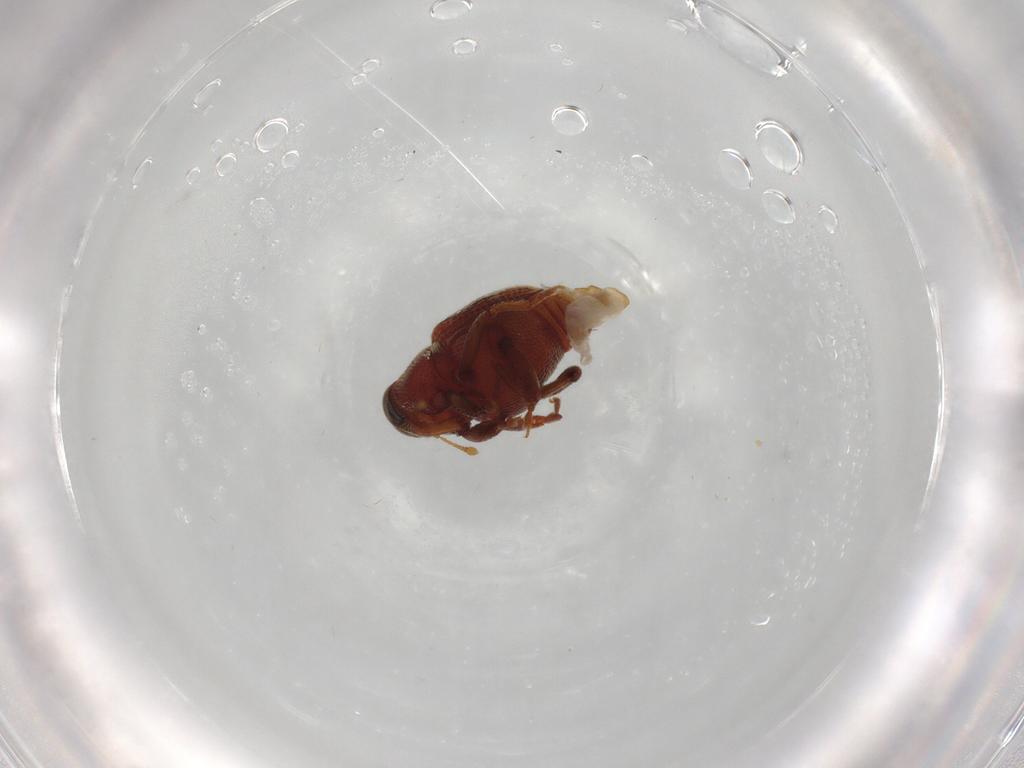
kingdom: Animalia
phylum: Arthropoda
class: Insecta
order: Coleoptera
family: Curculionidae
